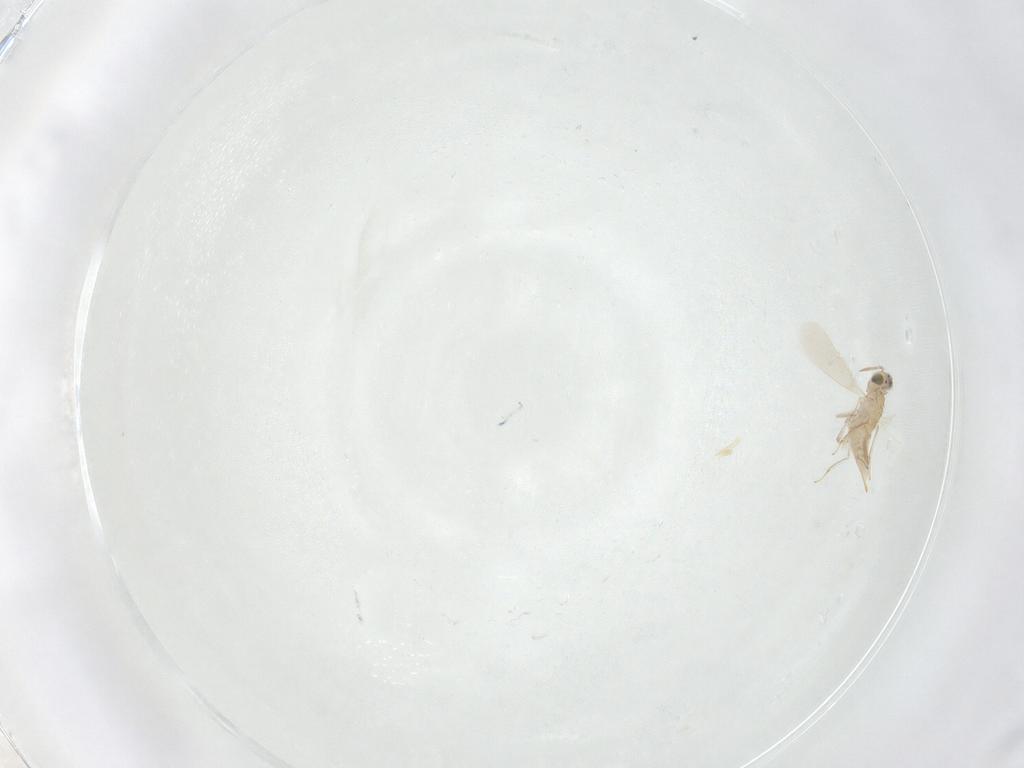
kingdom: Animalia
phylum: Arthropoda
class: Insecta
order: Hymenoptera
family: Aphelinidae
